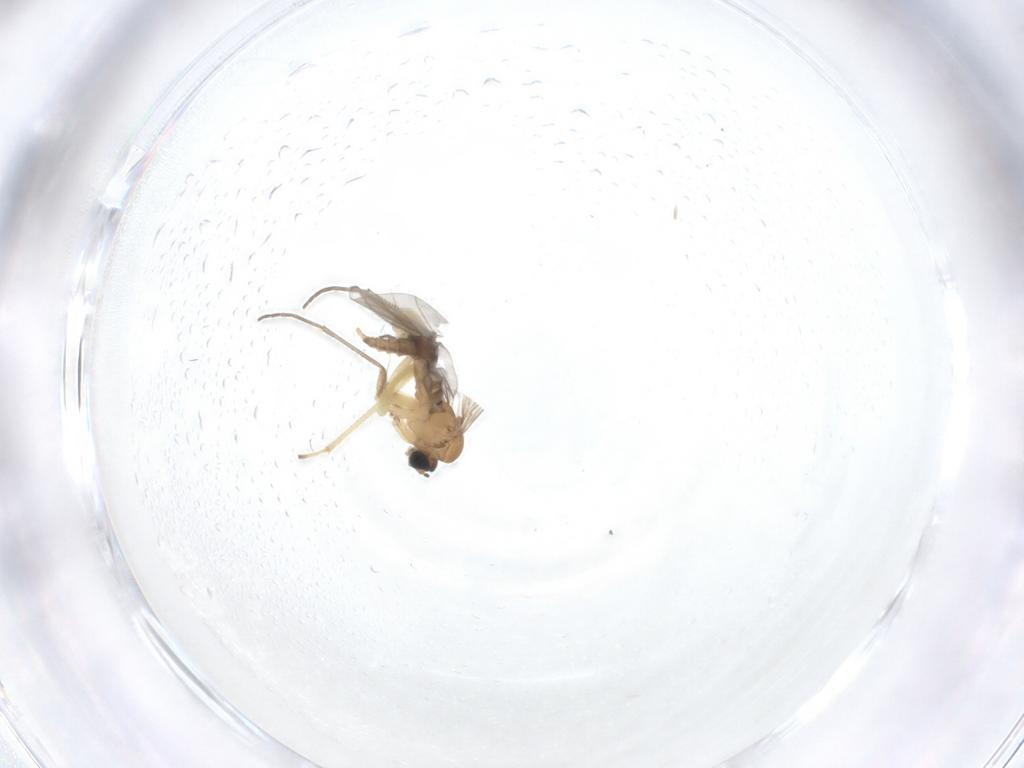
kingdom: Animalia
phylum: Arthropoda
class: Insecta
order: Diptera
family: Sciaridae
